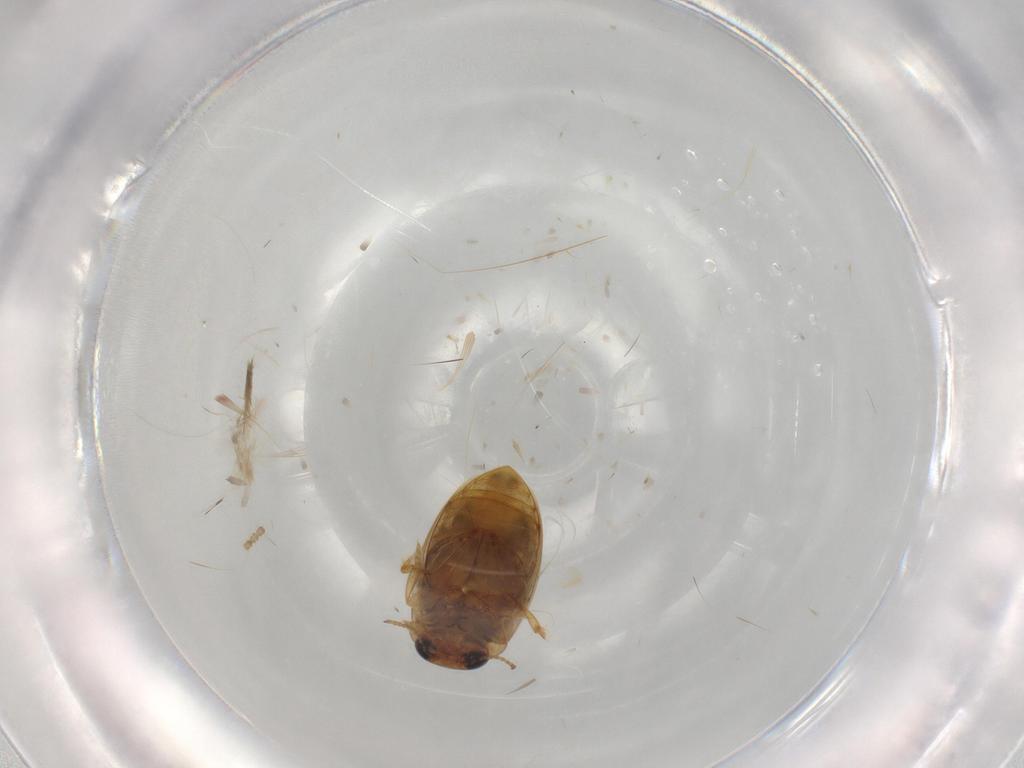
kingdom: Animalia
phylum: Arthropoda
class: Insecta
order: Coleoptera
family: Dytiscidae
